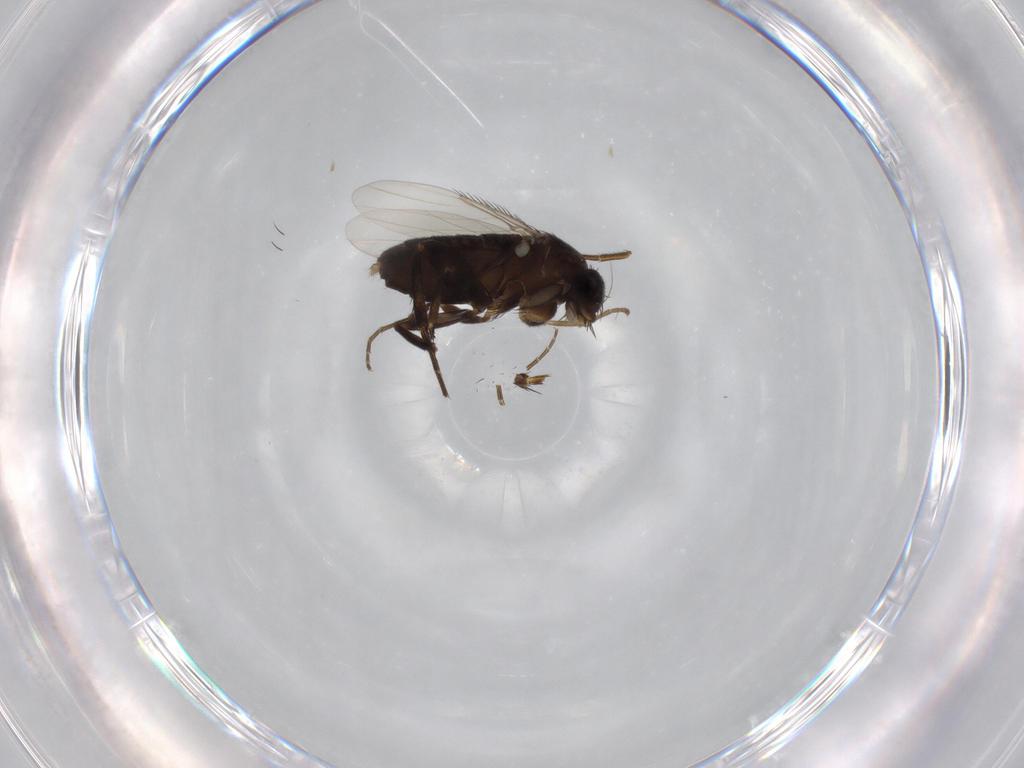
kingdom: Animalia
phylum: Arthropoda
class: Insecta
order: Diptera
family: Phoridae
